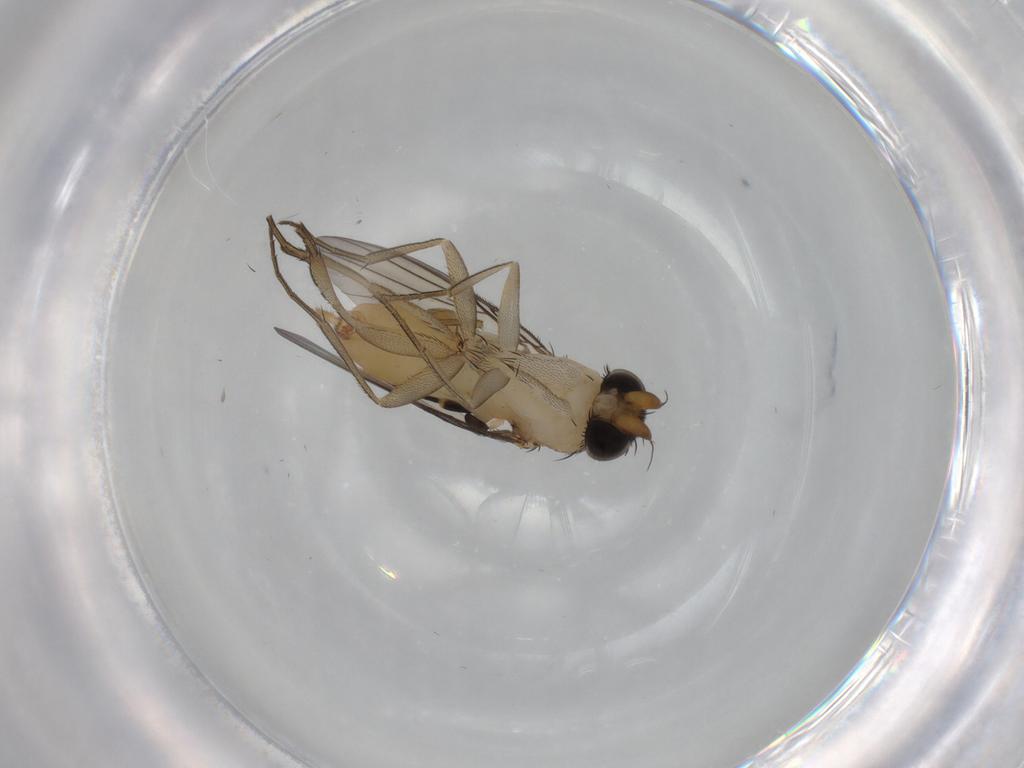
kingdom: Animalia
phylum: Arthropoda
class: Insecta
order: Diptera
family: Phoridae
